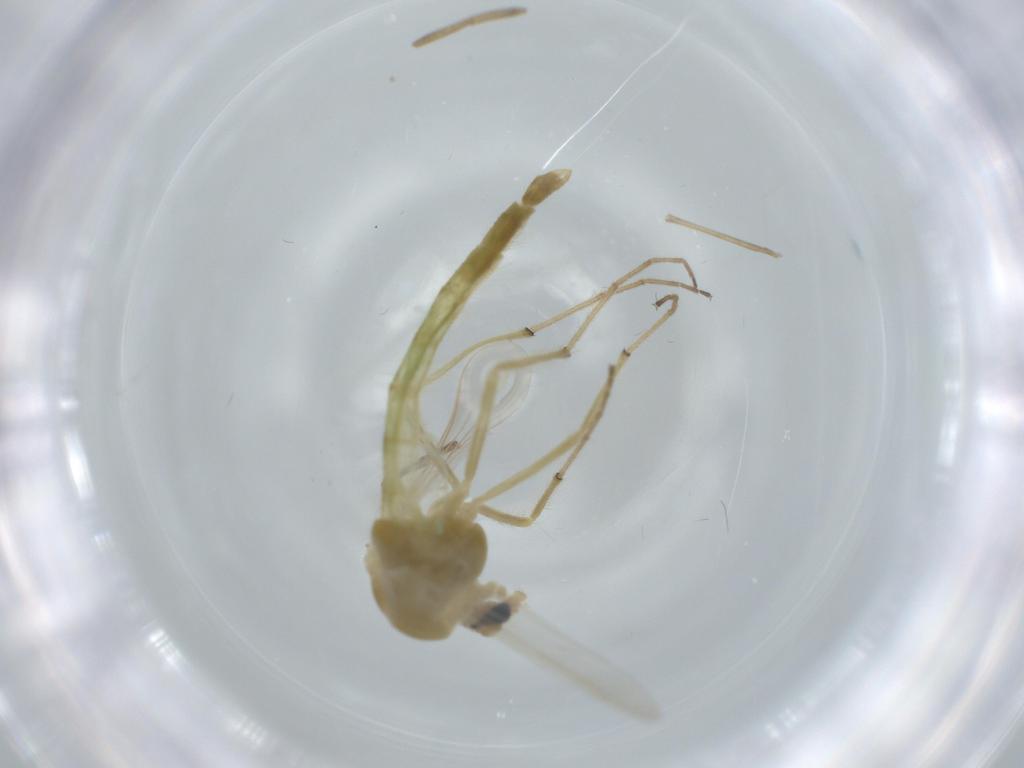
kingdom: Animalia
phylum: Arthropoda
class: Insecta
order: Diptera
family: Chironomidae
